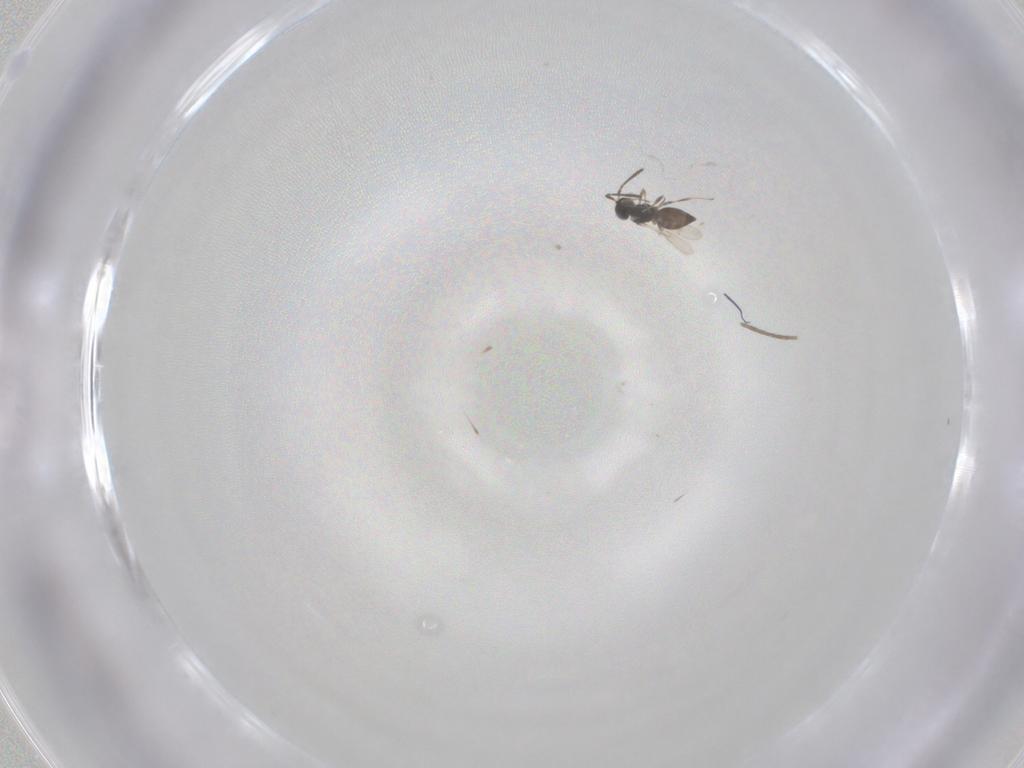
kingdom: Animalia
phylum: Arthropoda
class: Insecta
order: Hymenoptera
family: Scelionidae
